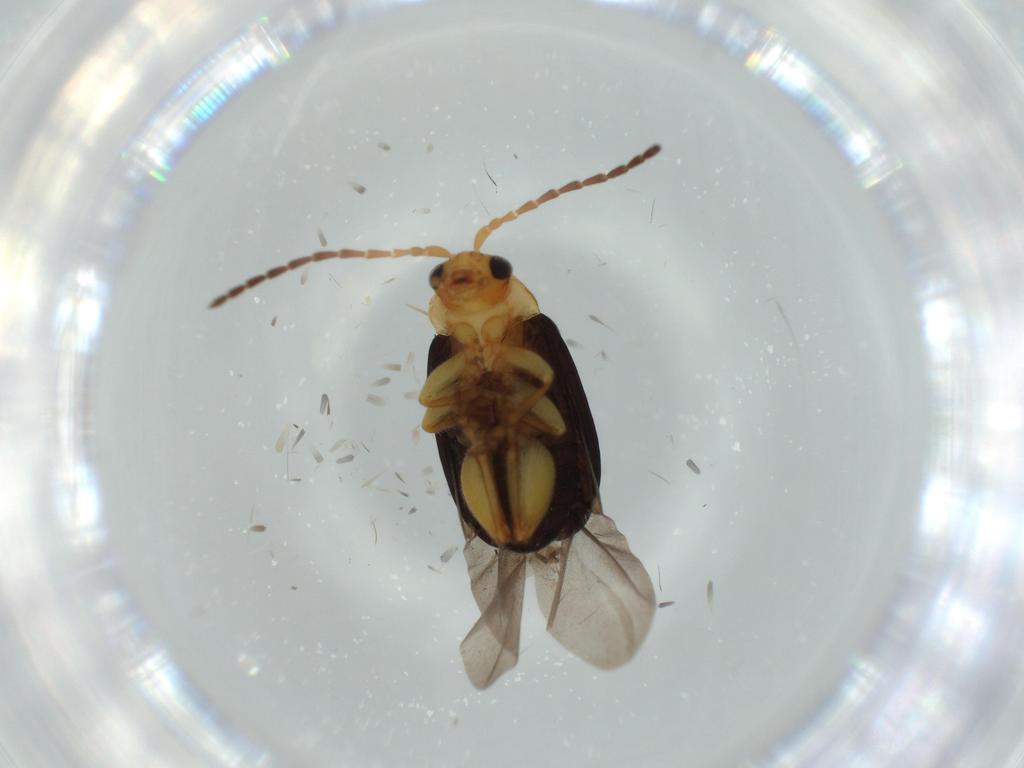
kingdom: Animalia
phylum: Arthropoda
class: Insecta
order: Coleoptera
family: Chrysomelidae
